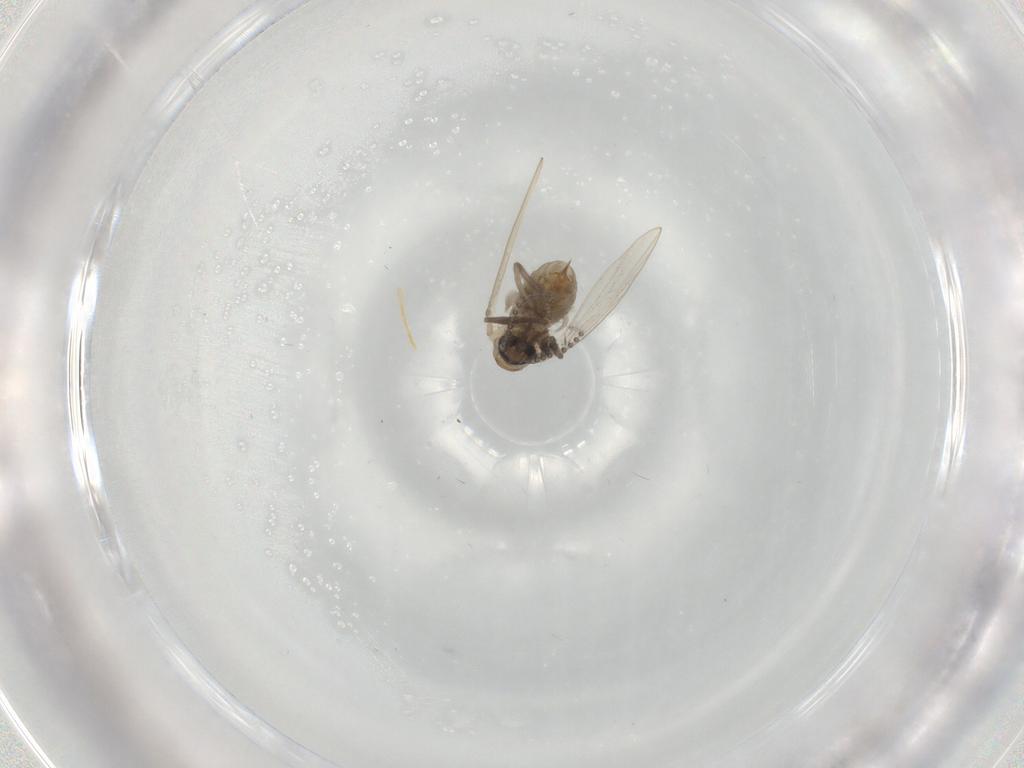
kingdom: Animalia
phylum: Arthropoda
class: Insecta
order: Diptera
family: Psychodidae
